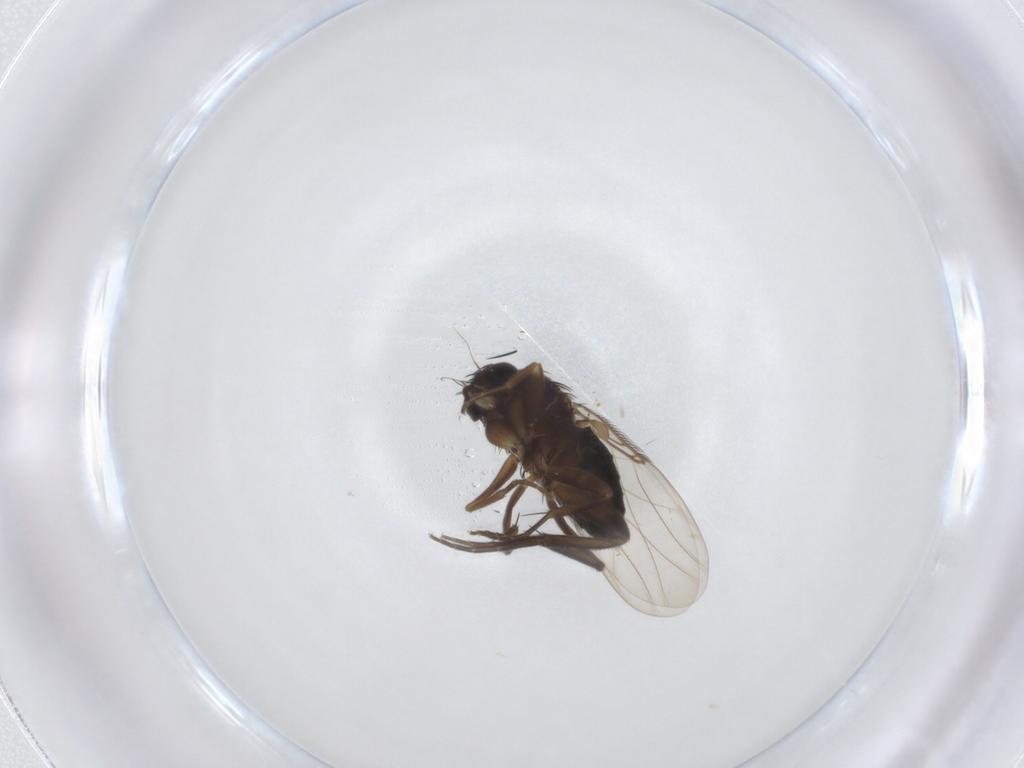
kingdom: Animalia
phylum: Arthropoda
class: Insecta
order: Diptera
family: Phoridae
